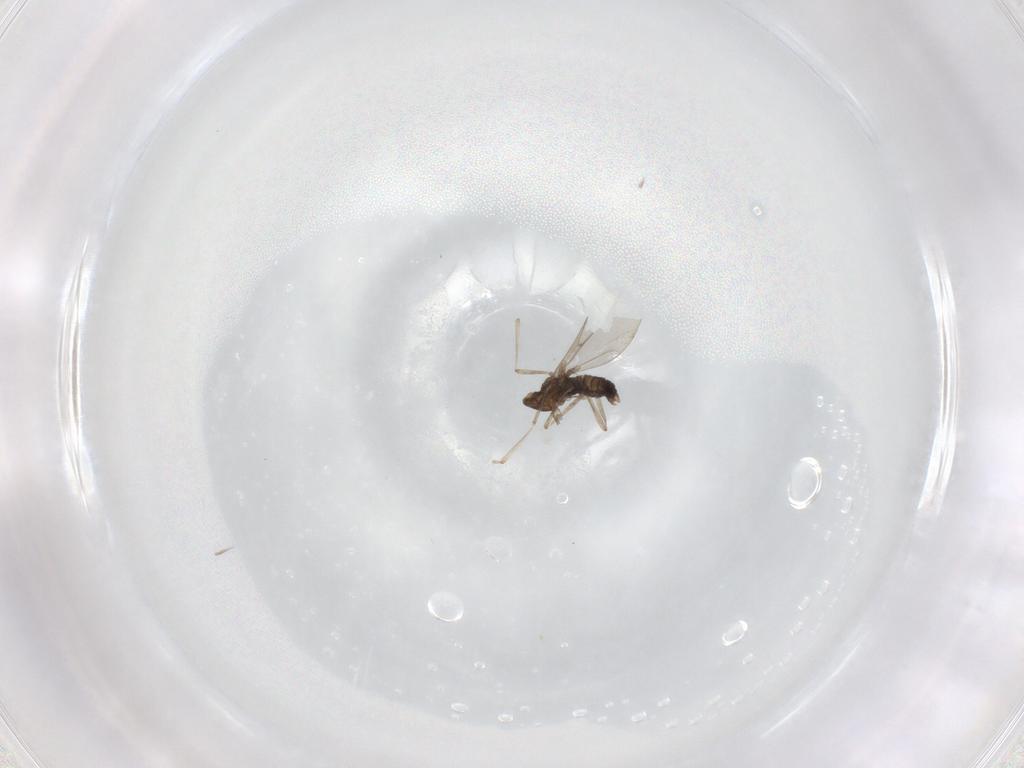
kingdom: Animalia
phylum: Arthropoda
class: Insecta
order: Diptera
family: Cecidomyiidae
